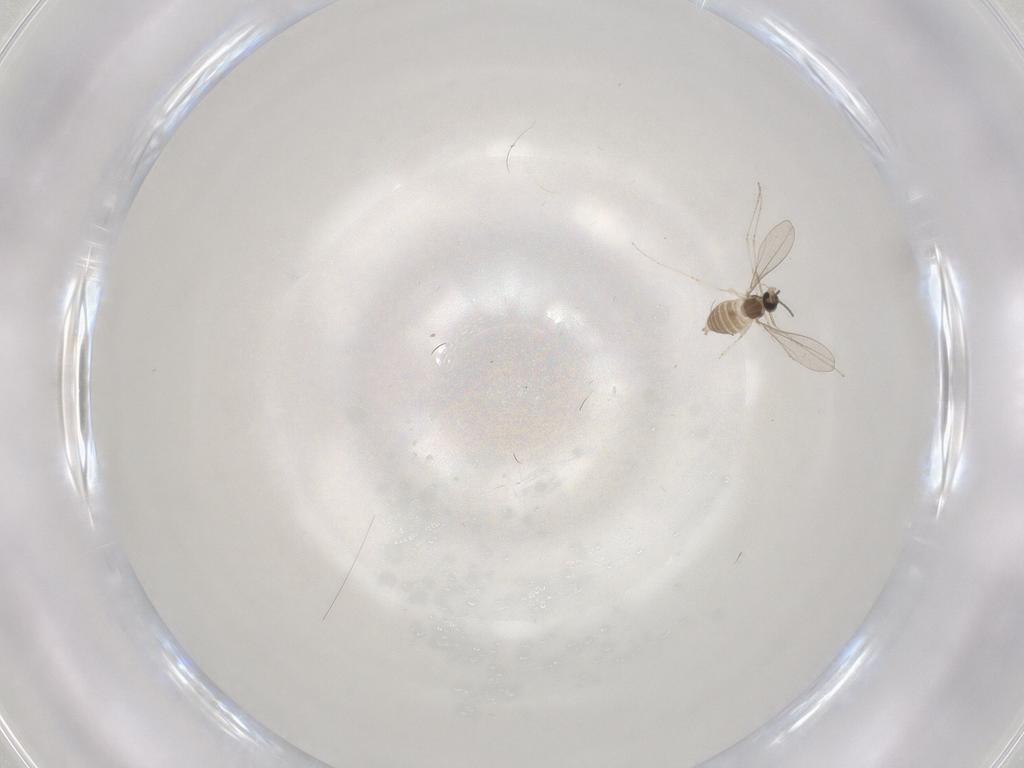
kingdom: Animalia
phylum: Arthropoda
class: Insecta
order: Diptera
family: Cecidomyiidae
